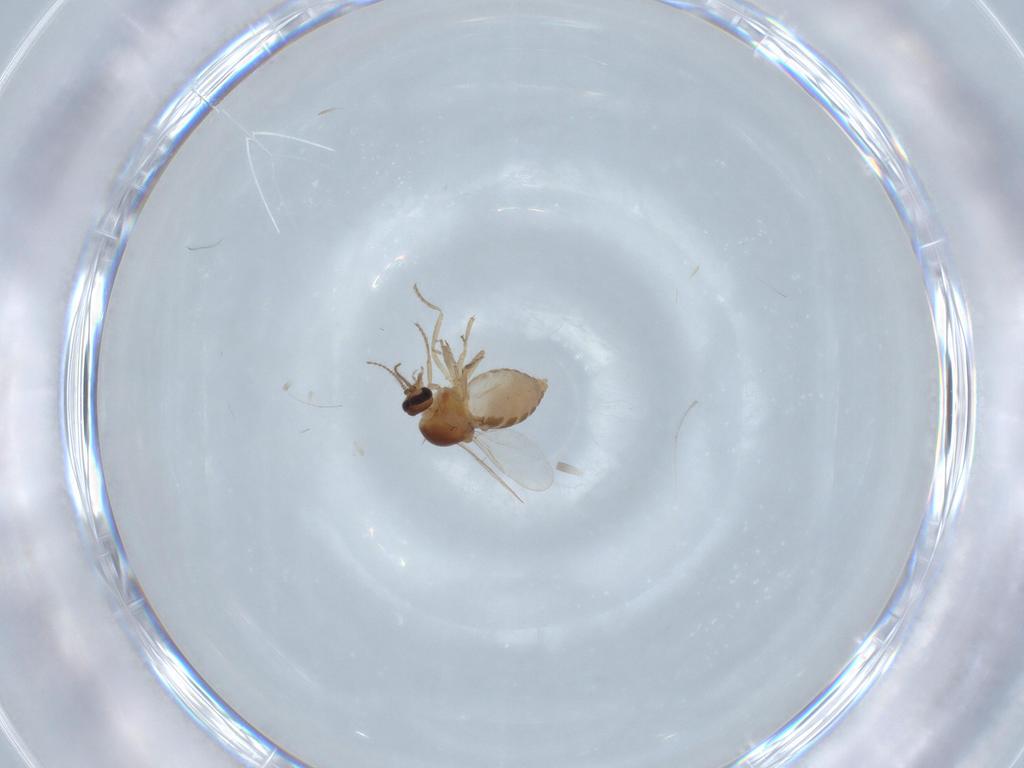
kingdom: Animalia
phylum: Arthropoda
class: Insecta
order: Diptera
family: Ceratopogonidae
